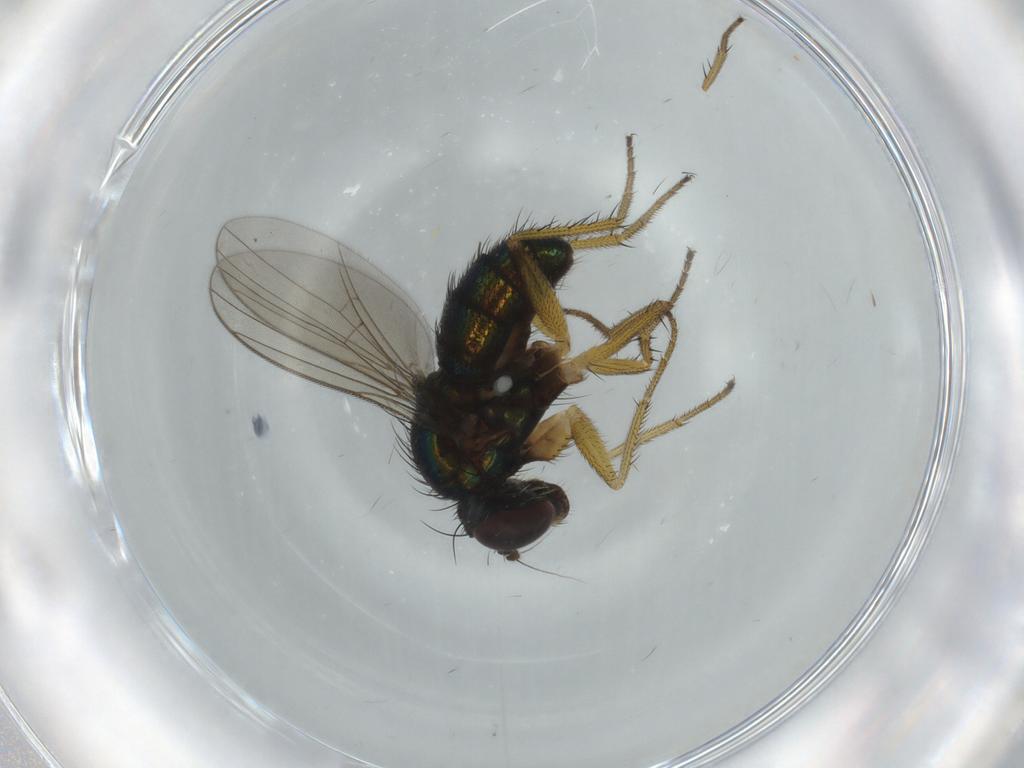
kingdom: Animalia
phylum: Arthropoda
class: Insecta
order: Diptera
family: Dolichopodidae
